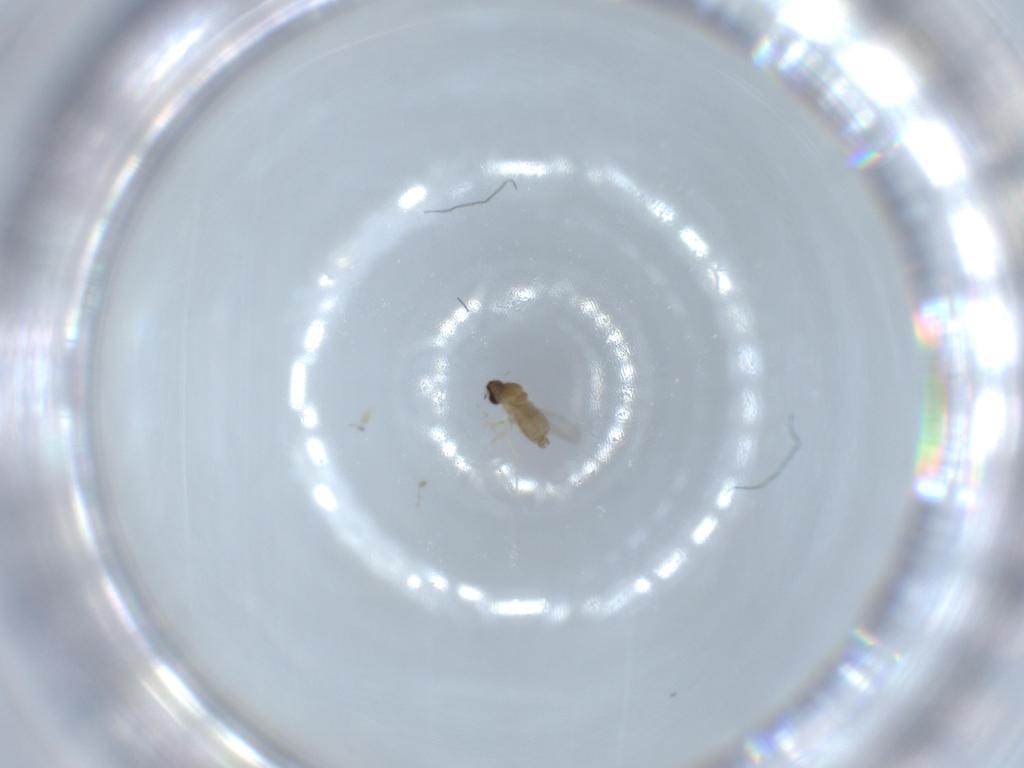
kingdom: Animalia
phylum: Arthropoda
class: Insecta
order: Diptera
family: Cecidomyiidae
